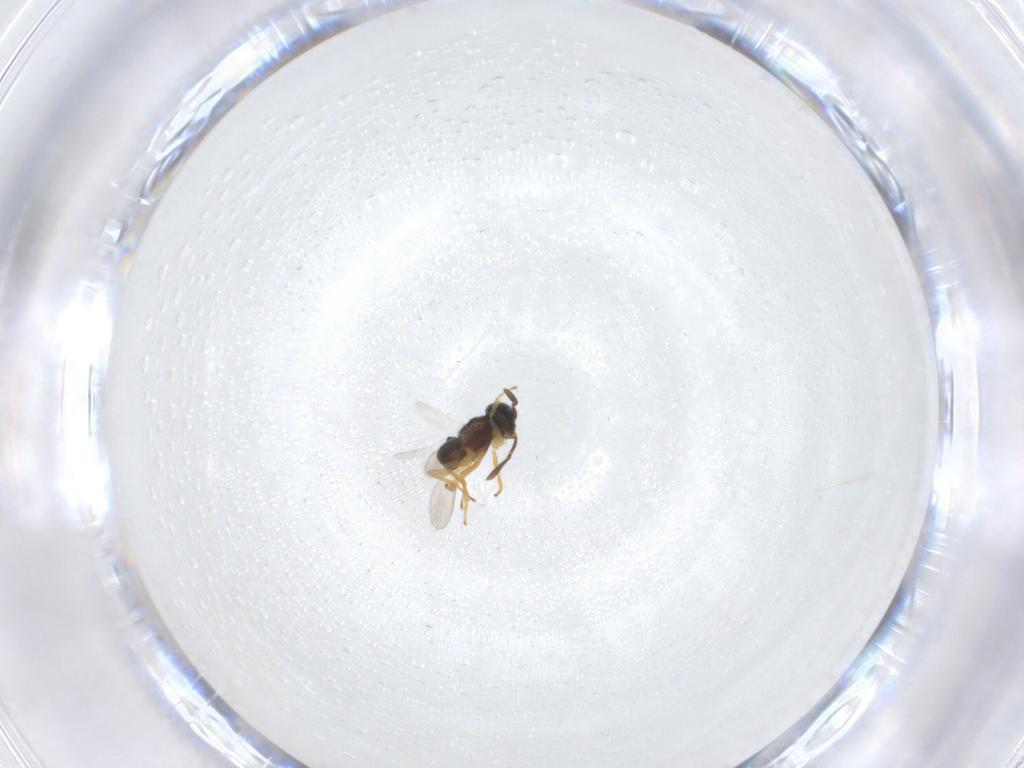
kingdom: Animalia
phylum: Arthropoda
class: Insecta
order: Hymenoptera
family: Encyrtidae
